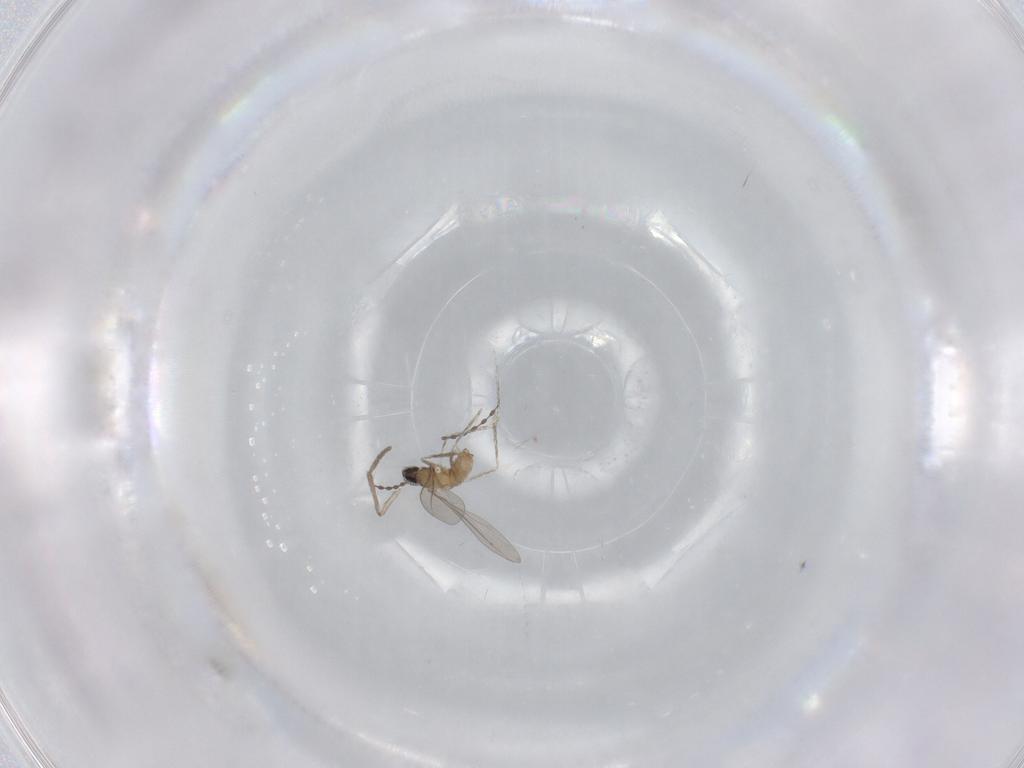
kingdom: Animalia
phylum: Arthropoda
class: Insecta
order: Diptera
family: Cecidomyiidae
